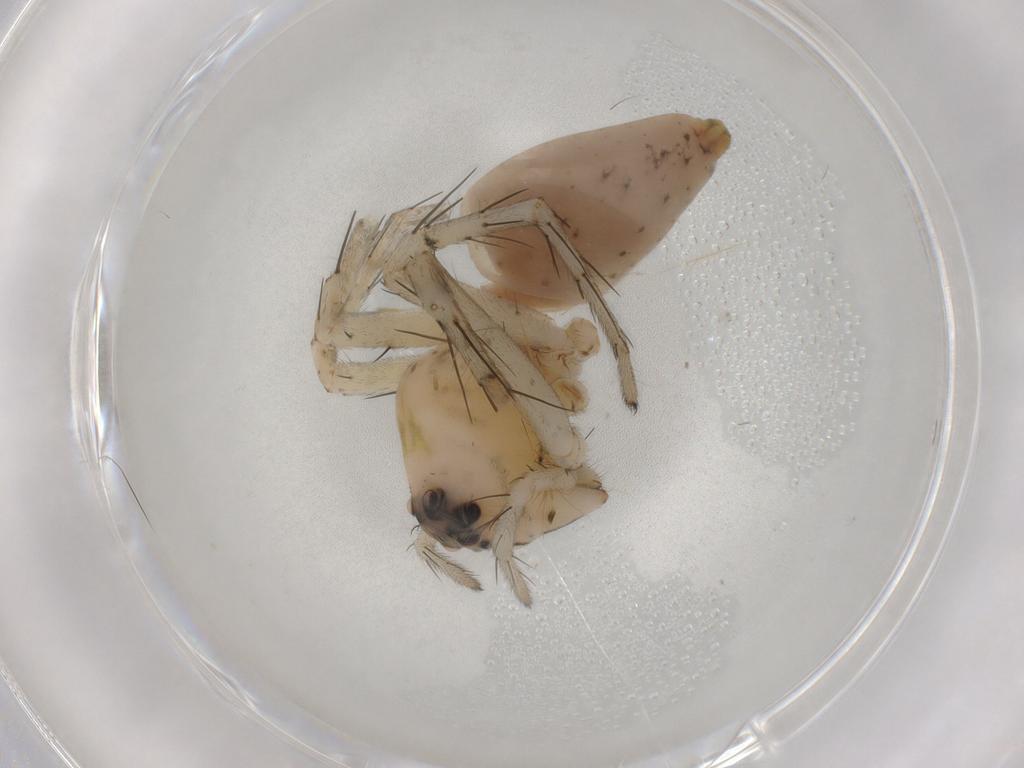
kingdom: Animalia
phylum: Arthropoda
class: Arachnida
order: Araneae
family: Oxyopidae
